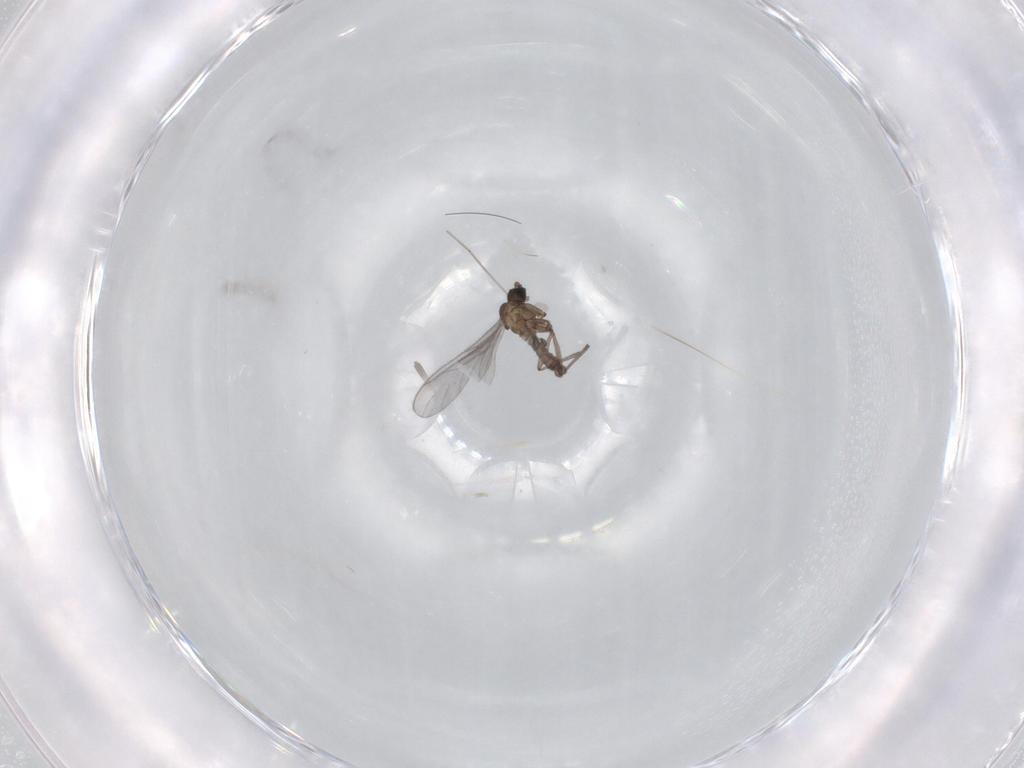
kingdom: Animalia
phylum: Arthropoda
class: Insecta
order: Diptera
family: Sciaridae
